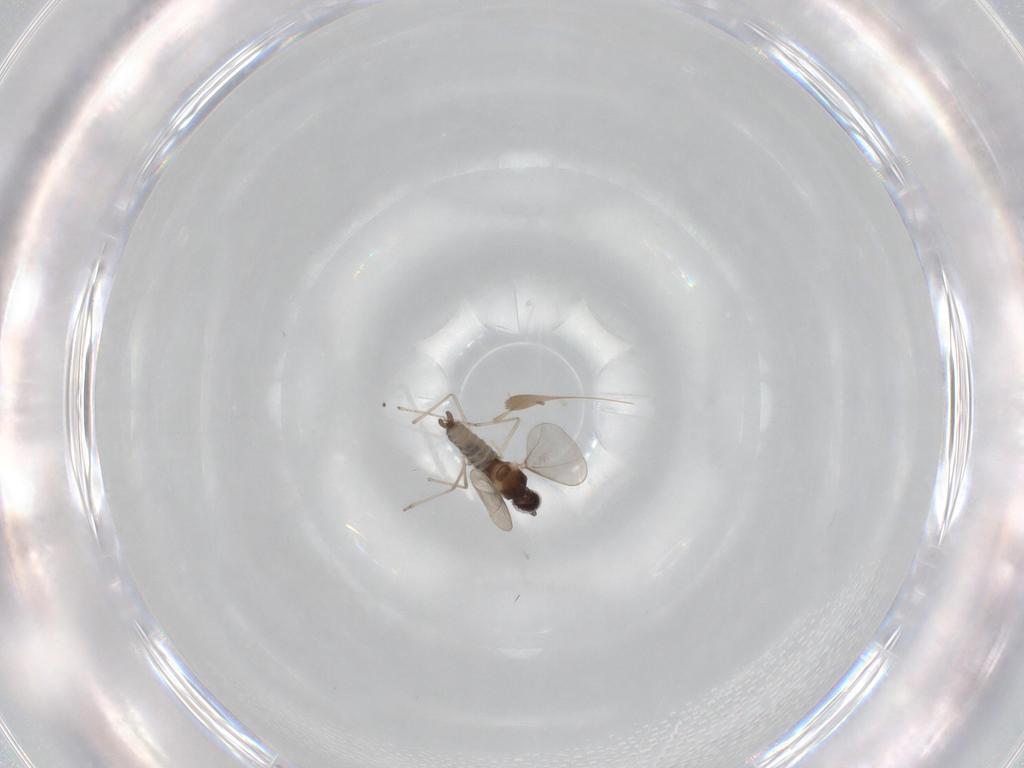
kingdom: Animalia
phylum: Arthropoda
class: Insecta
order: Diptera
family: Cecidomyiidae
